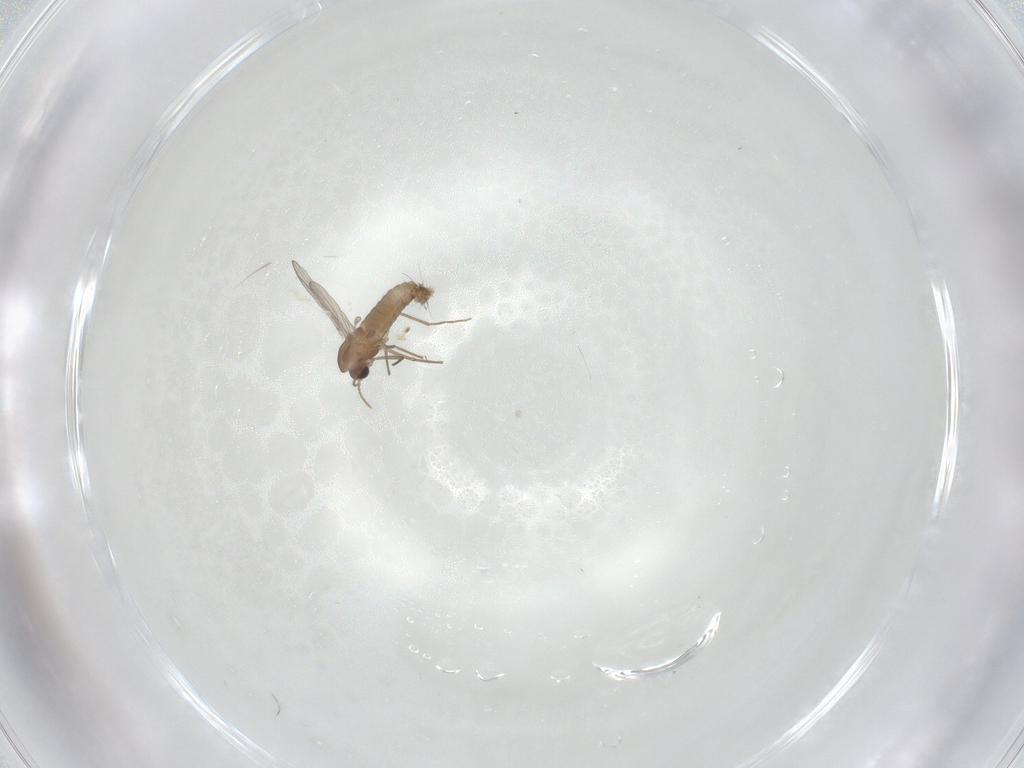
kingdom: Animalia
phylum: Arthropoda
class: Insecta
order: Diptera
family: Chironomidae
